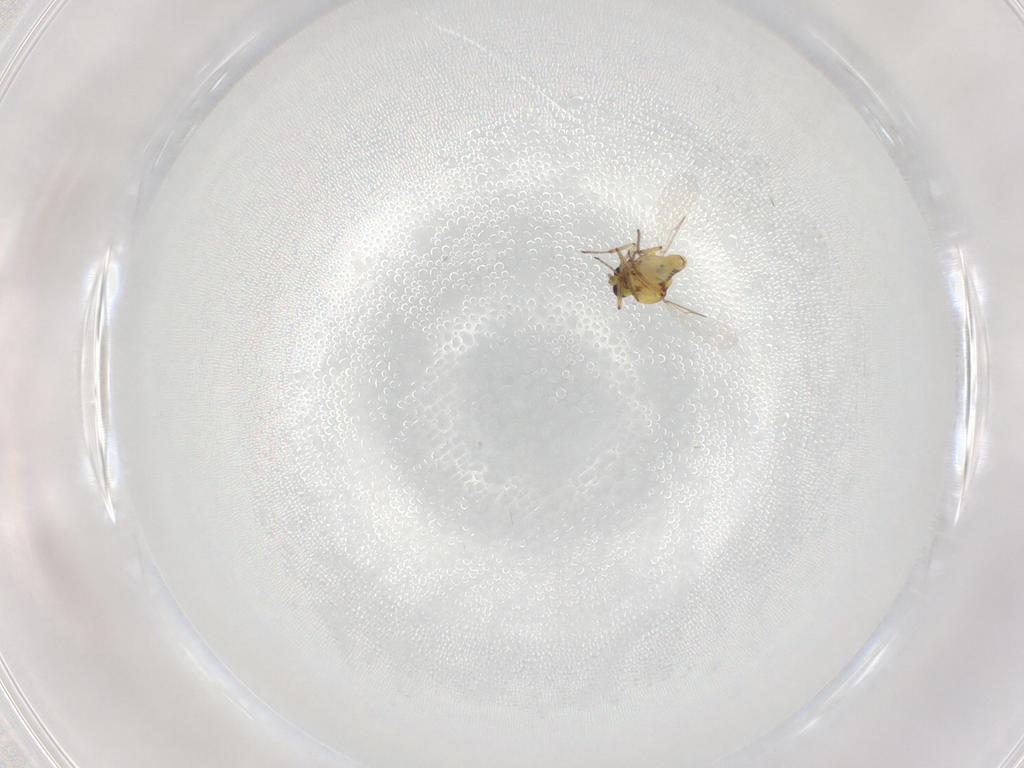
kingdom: Animalia
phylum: Arthropoda
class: Insecta
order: Diptera
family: Ceratopogonidae
